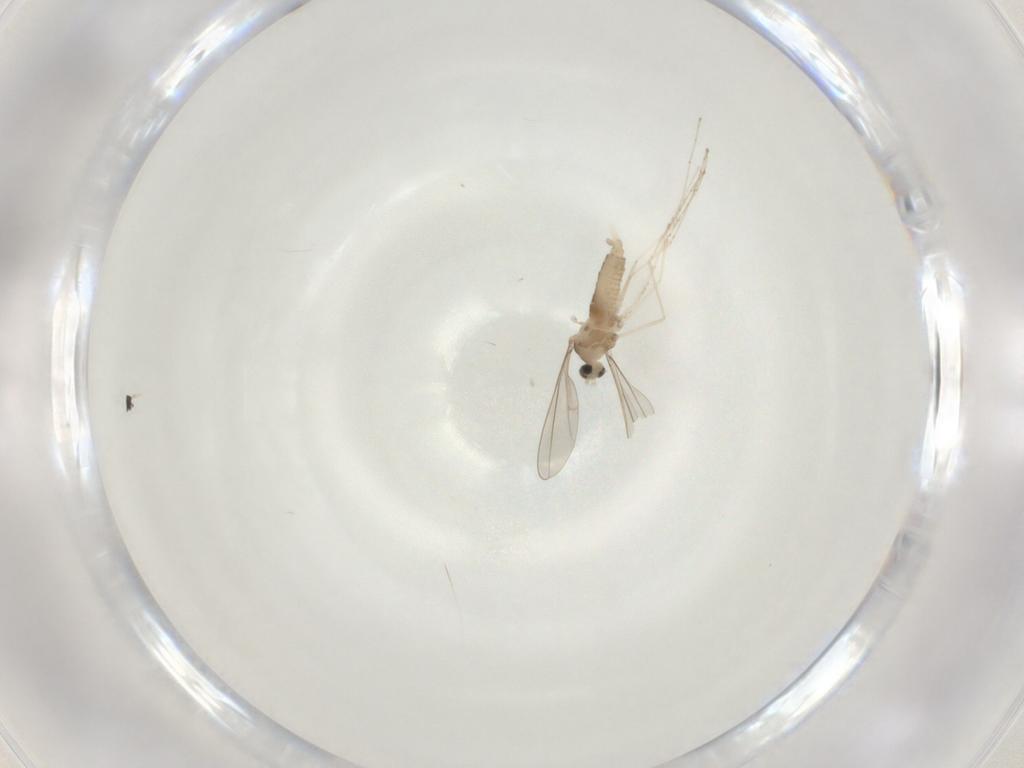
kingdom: Animalia
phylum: Arthropoda
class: Insecta
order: Diptera
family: Cecidomyiidae
